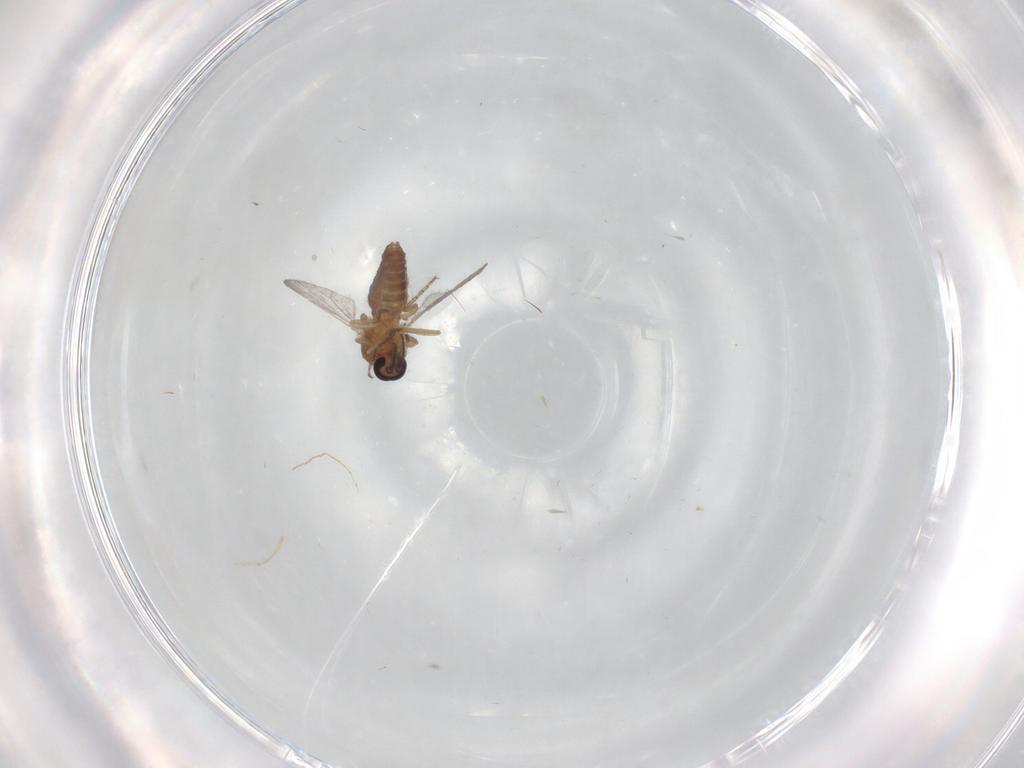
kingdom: Animalia
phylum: Arthropoda
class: Insecta
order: Diptera
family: Ceratopogonidae
